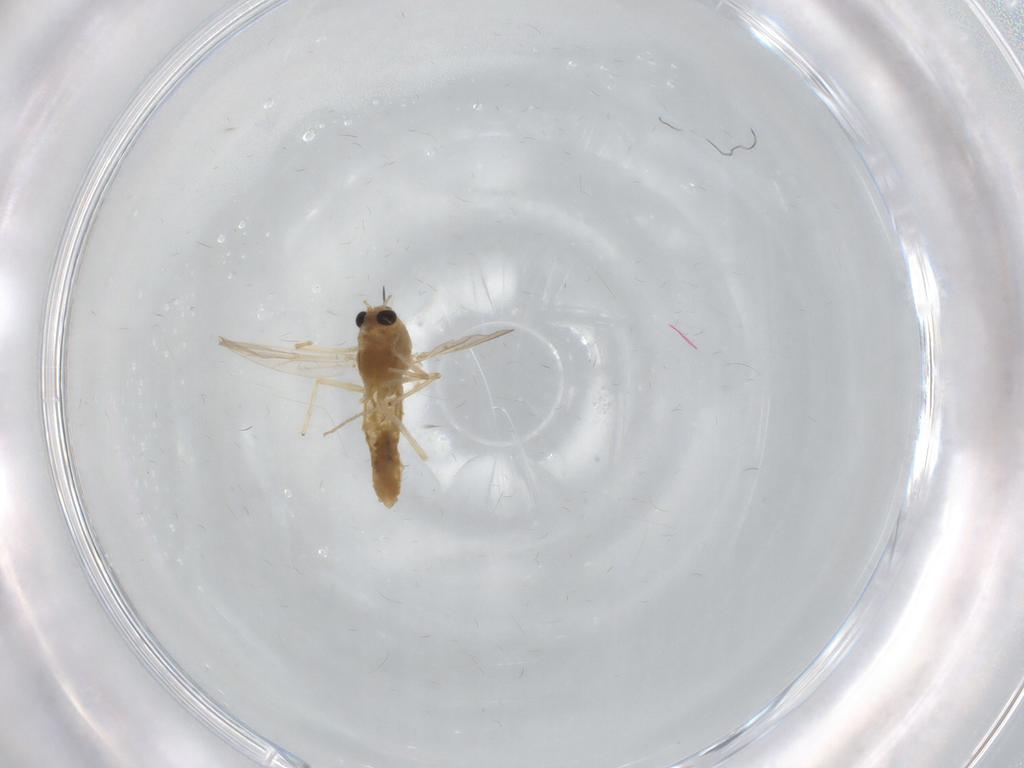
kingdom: Animalia
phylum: Arthropoda
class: Insecta
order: Diptera
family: Chironomidae
